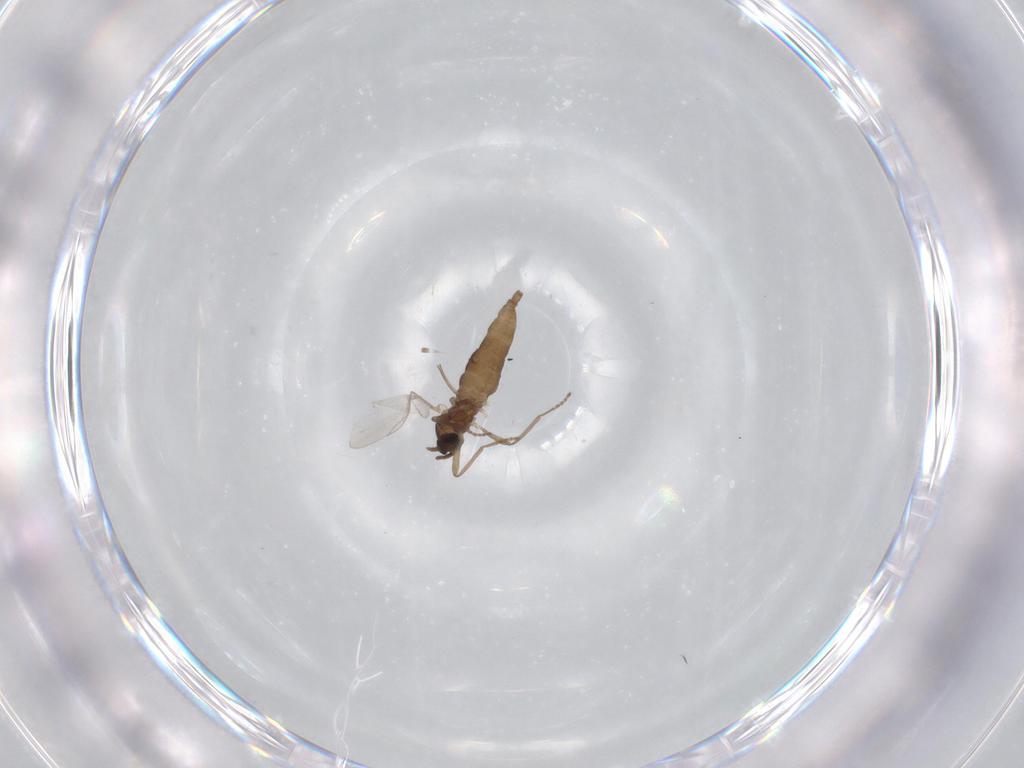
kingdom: Animalia
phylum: Arthropoda
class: Insecta
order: Diptera
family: Cecidomyiidae
